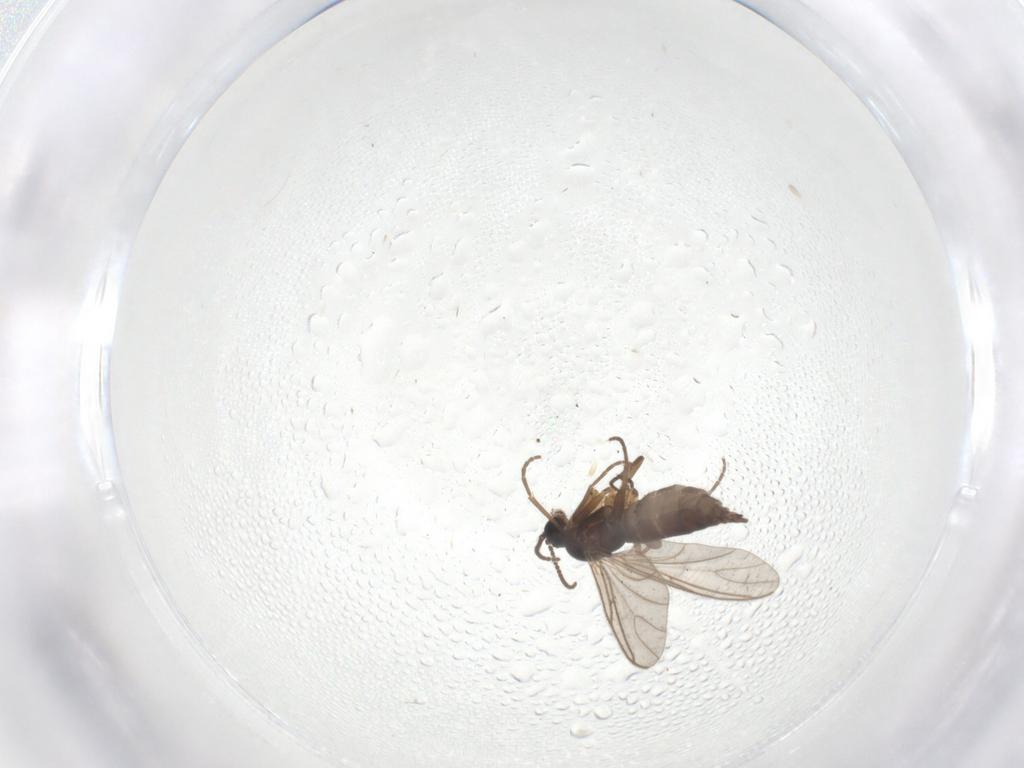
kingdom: Animalia
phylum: Arthropoda
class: Insecta
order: Diptera
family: Sciaridae
